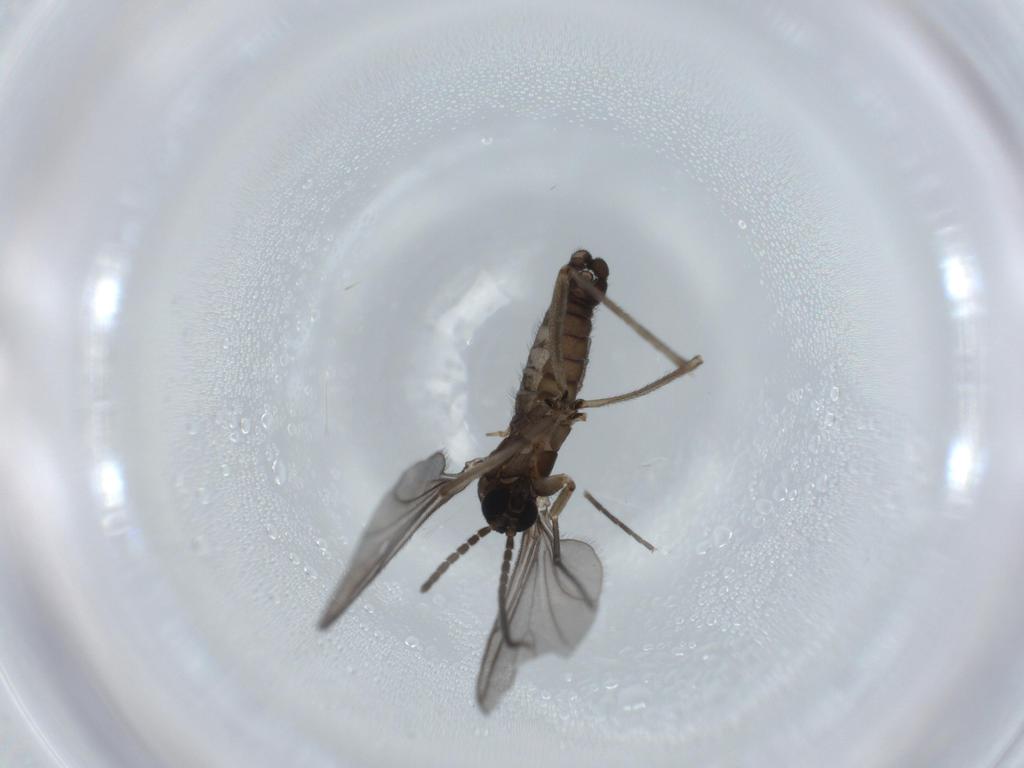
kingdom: Animalia
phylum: Arthropoda
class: Insecta
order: Diptera
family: Sciaridae
